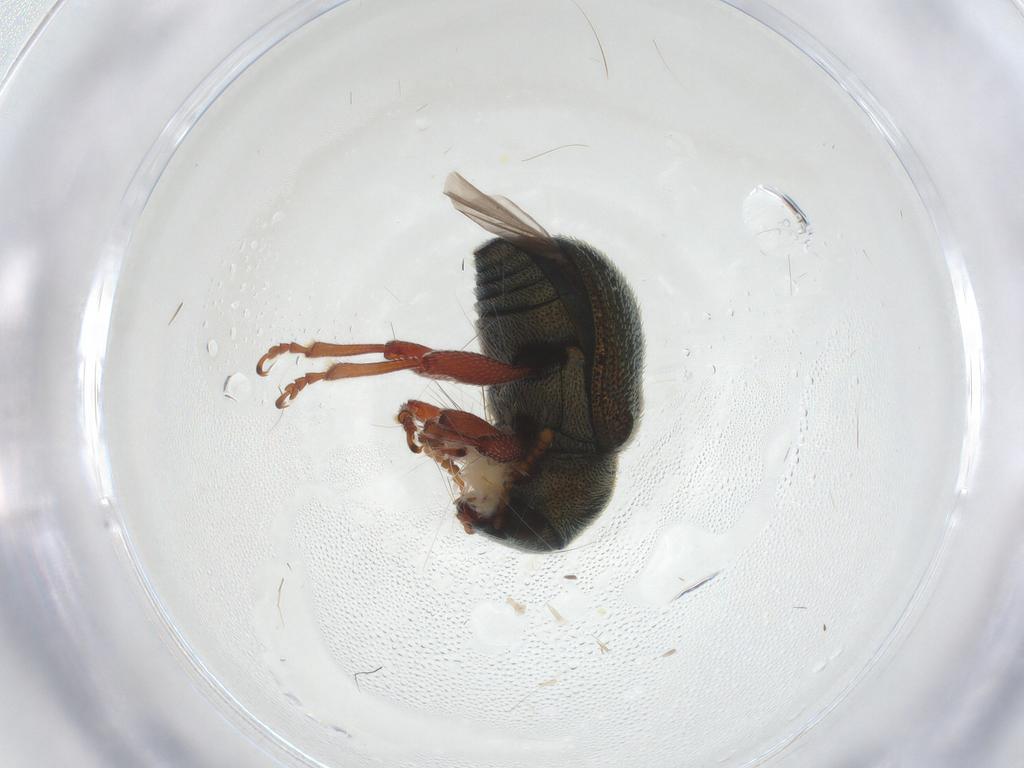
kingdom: Animalia
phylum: Arthropoda
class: Insecta
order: Coleoptera
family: Chrysomelidae
